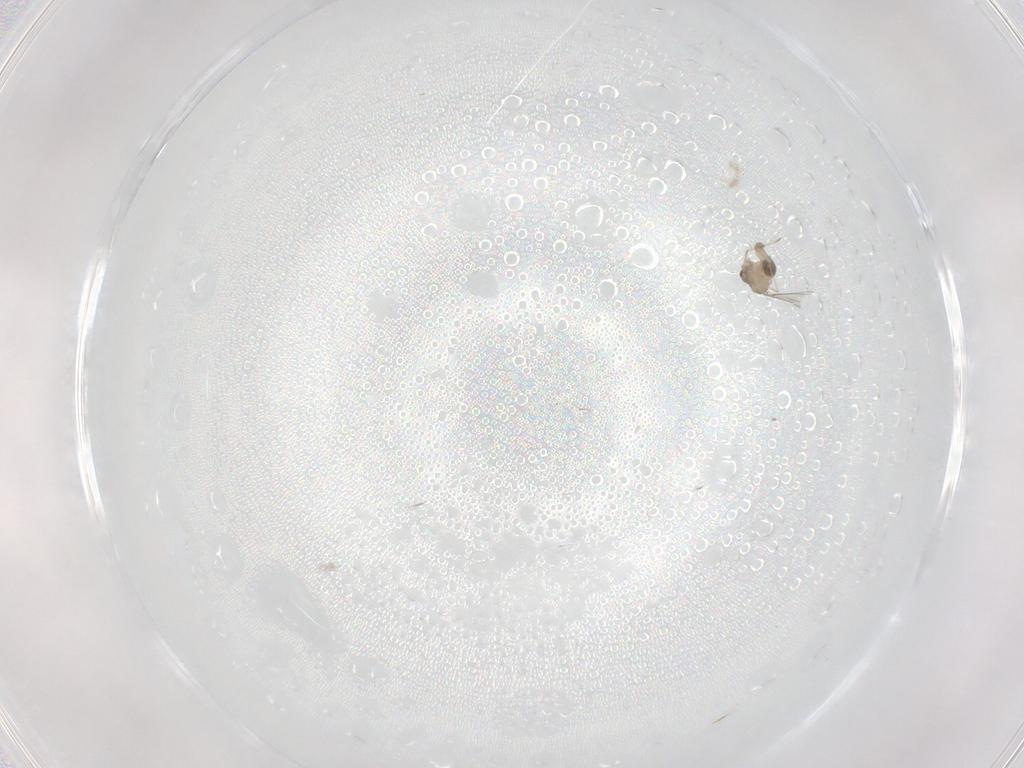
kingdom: Animalia
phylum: Arthropoda
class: Insecta
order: Diptera
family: Cecidomyiidae
